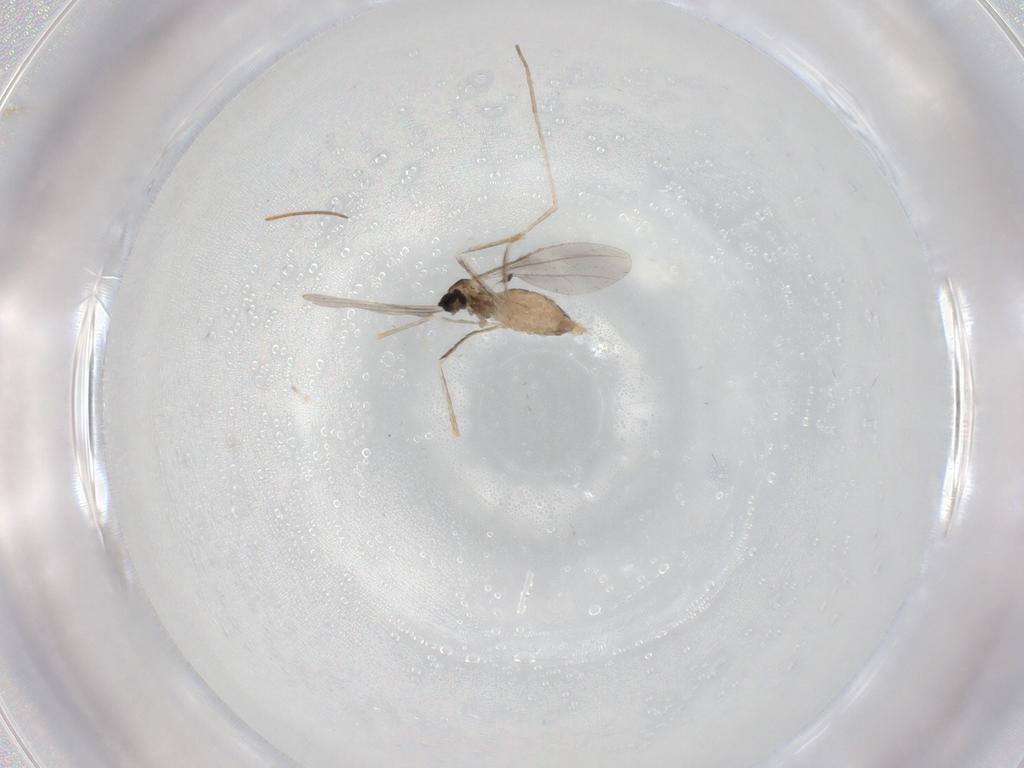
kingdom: Animalia
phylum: Arthropoda
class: Insecta
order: Diptera
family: Cecidomyiidae
